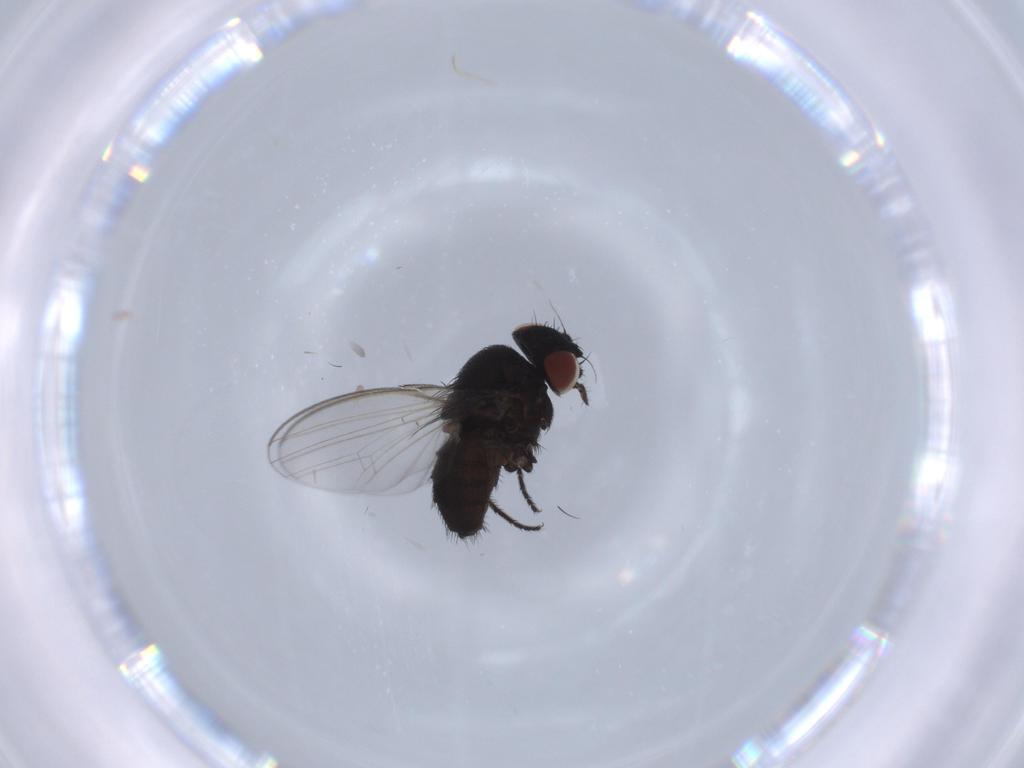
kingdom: Animalia
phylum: Arthropoda
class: Insecta
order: Diptera
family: Milichiidae
